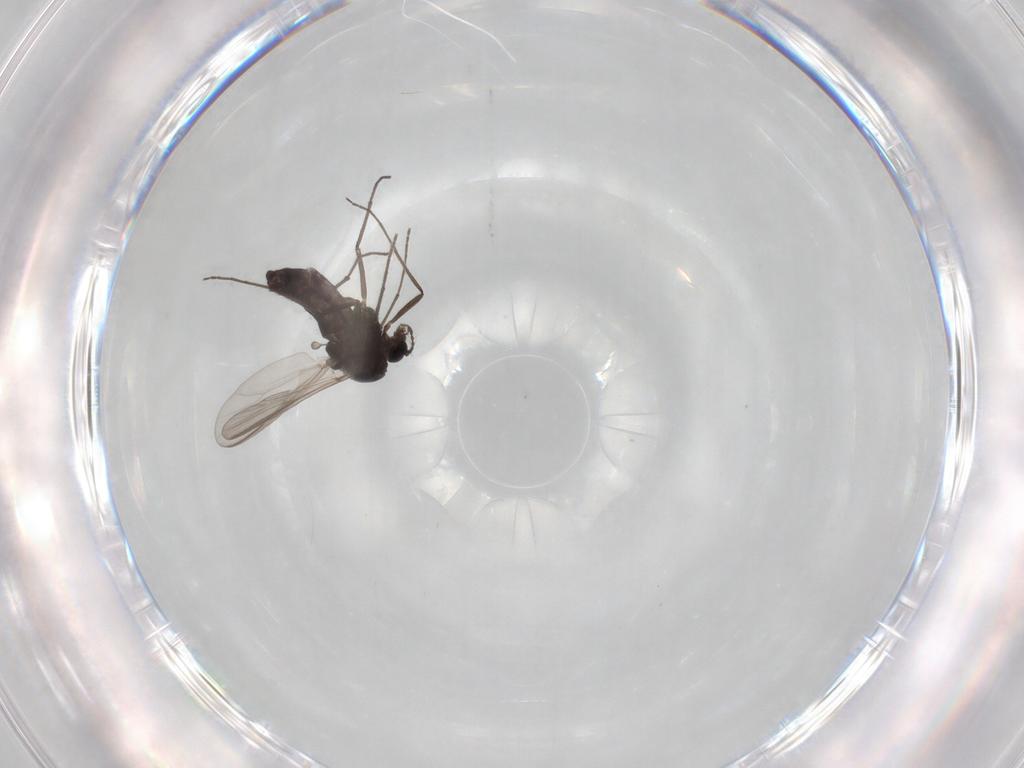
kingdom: Animalia
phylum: Arthropoda
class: Insecta
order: Diptera
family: Ceratopogonidae
